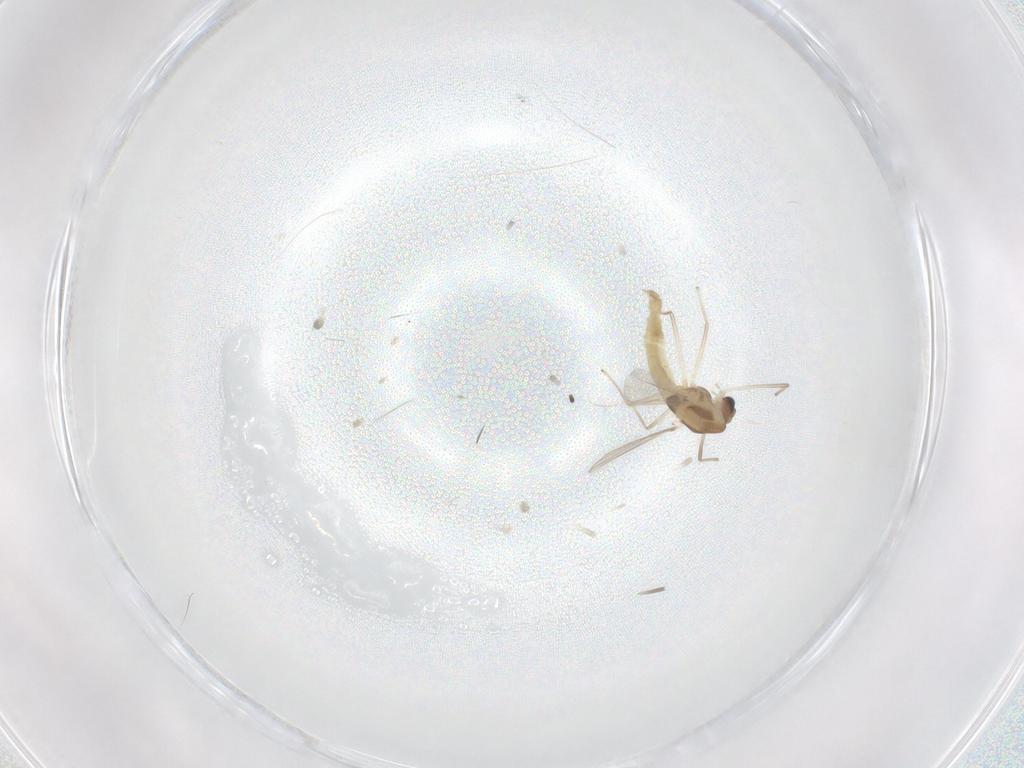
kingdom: Animalia
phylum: Arthropoda
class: Insecta
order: Diptera
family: Chironomidae
